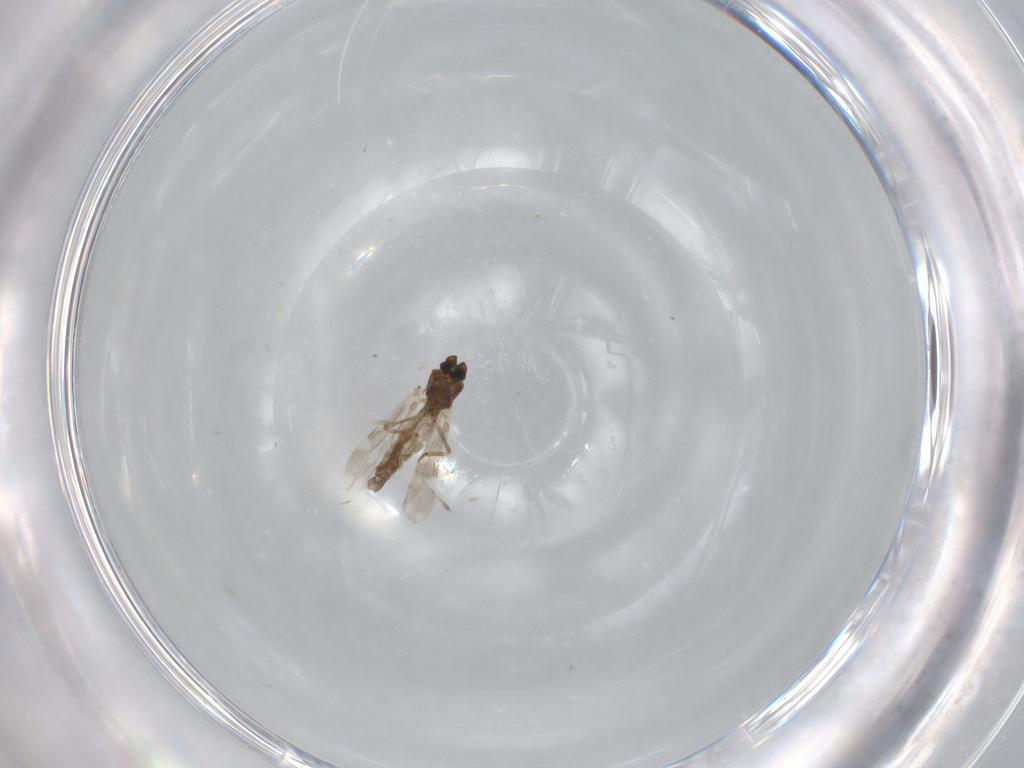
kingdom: Animalia
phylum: Arthropoda
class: Insecta
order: Diptera
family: Ceratopogonidae
